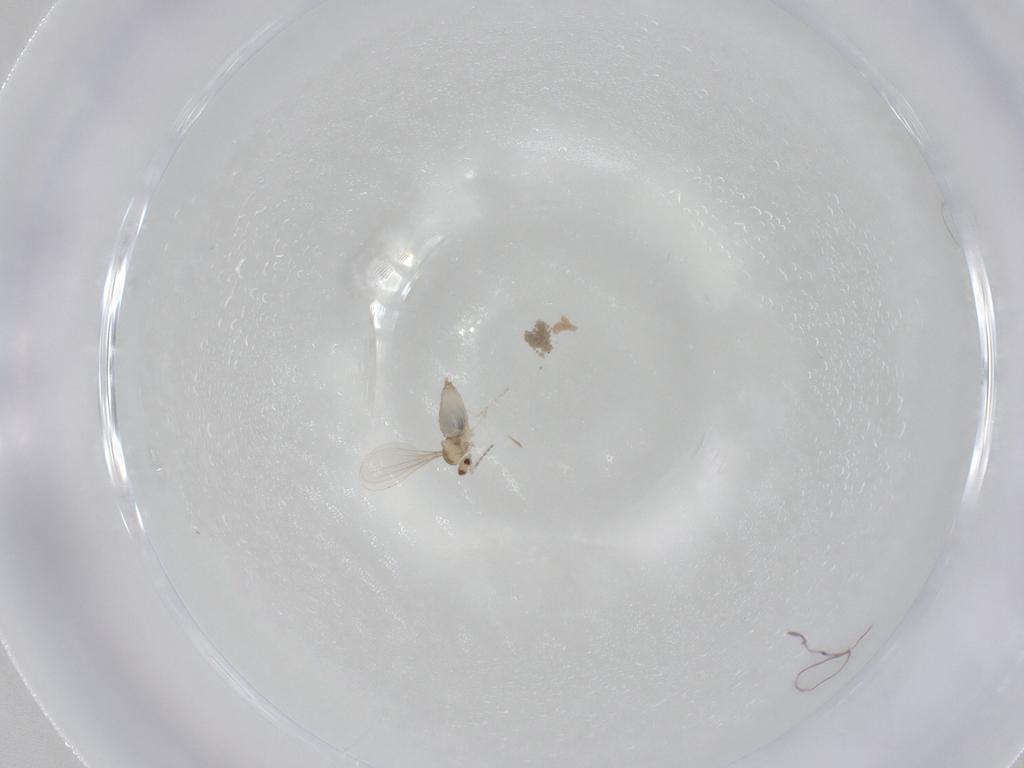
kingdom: Animalia
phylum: Arthropoda
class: Insecta
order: Diptera
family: Cecidomyiidae
